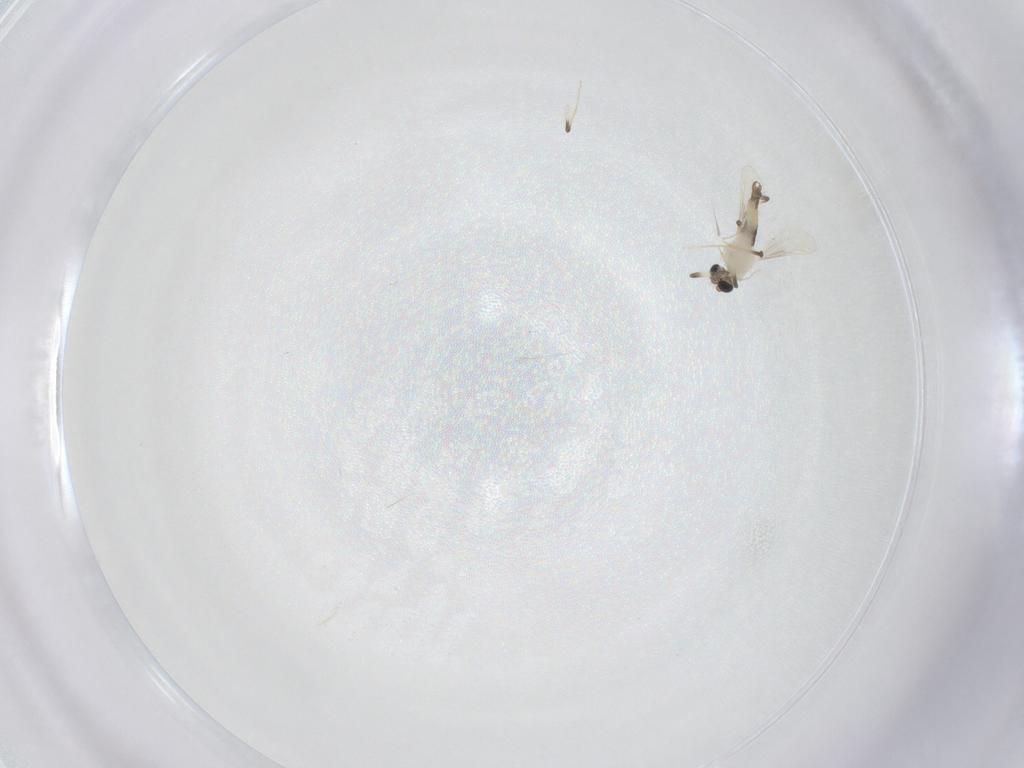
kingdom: Animalia
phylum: Arthropoda
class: Insecta
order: Diptera
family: Chironomidae
